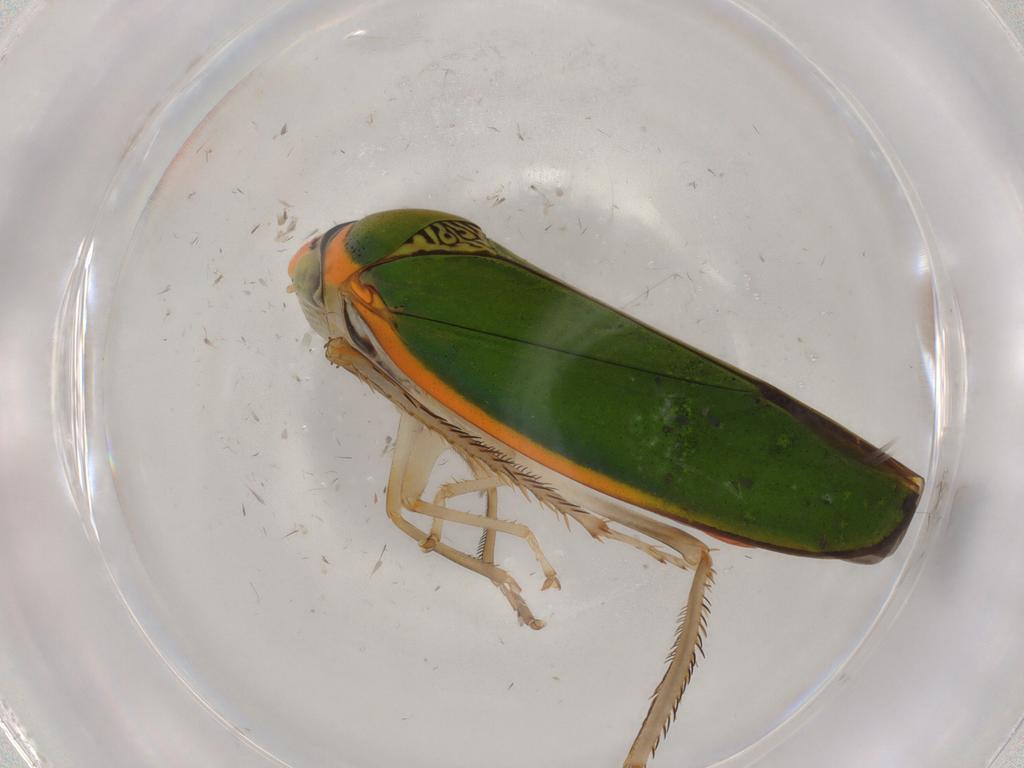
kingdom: Animalia
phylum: Arthropoda
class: Insecta
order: Hemiptera
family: Cicadellidae
